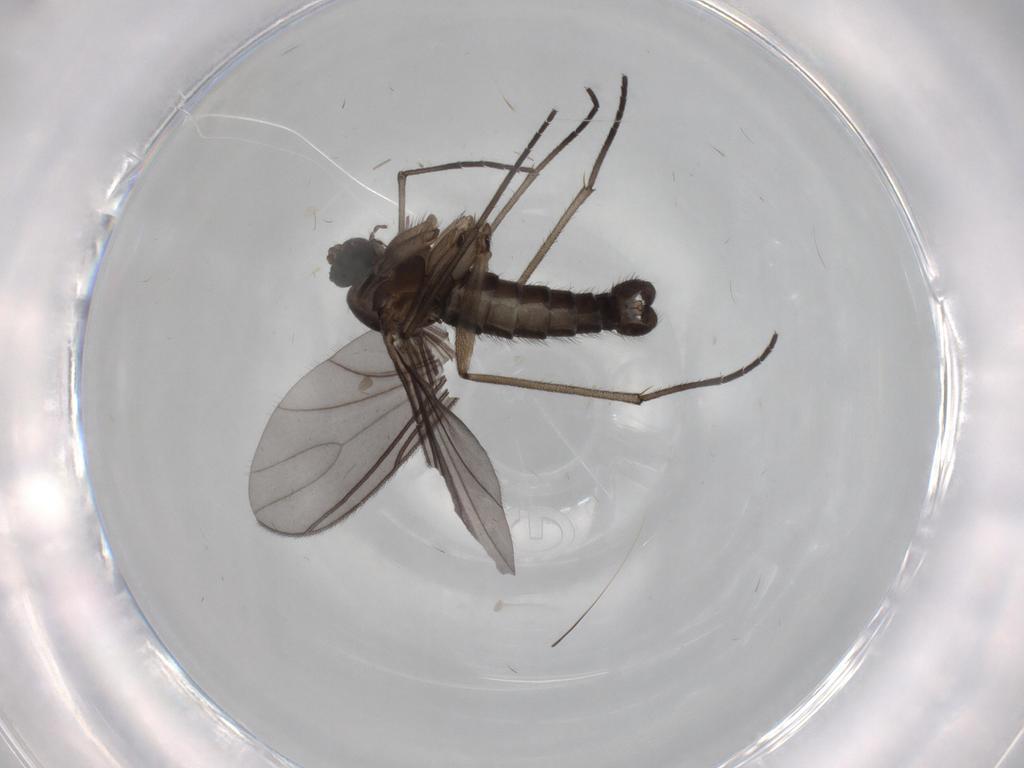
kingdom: Animalia
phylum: Arthropoda
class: Insecta
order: Diptera
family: Sciaridae
